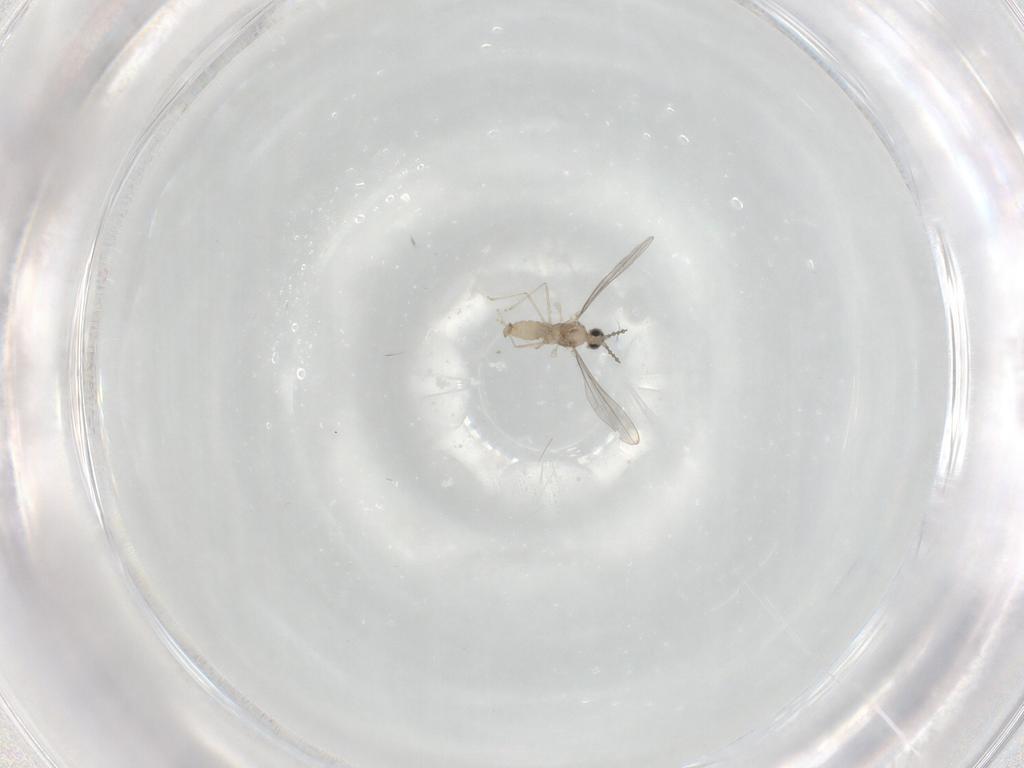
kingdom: Animalia
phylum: Arthropoda
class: Insecta
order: Diptera
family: Cecidomyiidae
